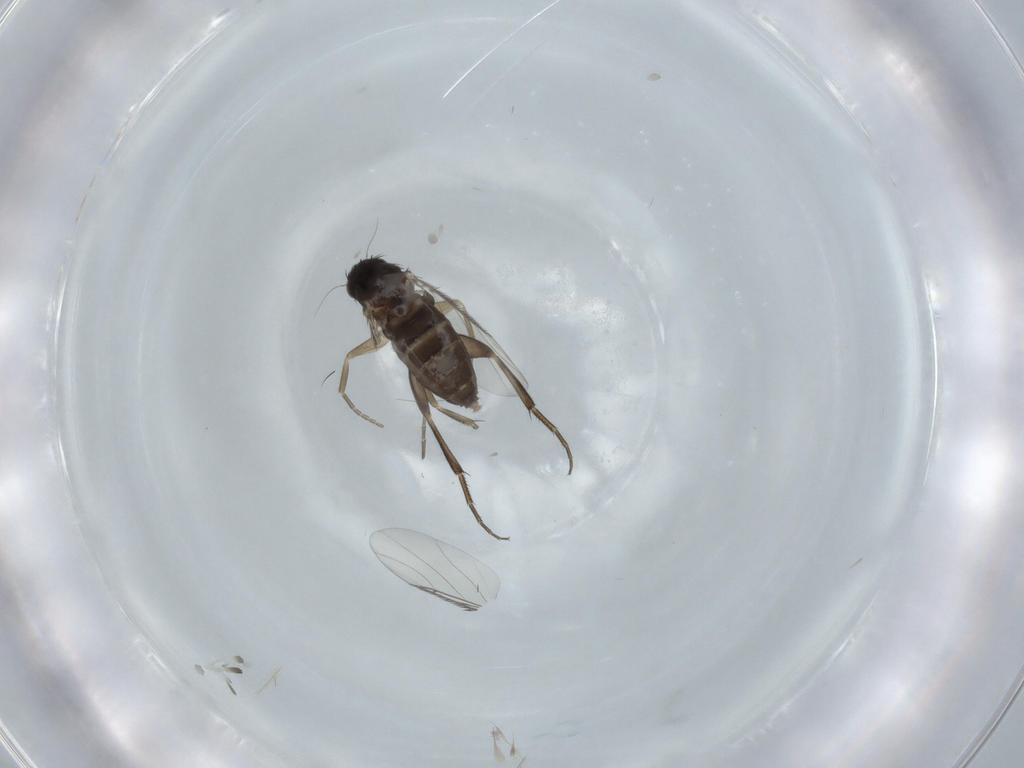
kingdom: Animalia
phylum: Arthropoda
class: Insecta
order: Diptera
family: Phoridae
